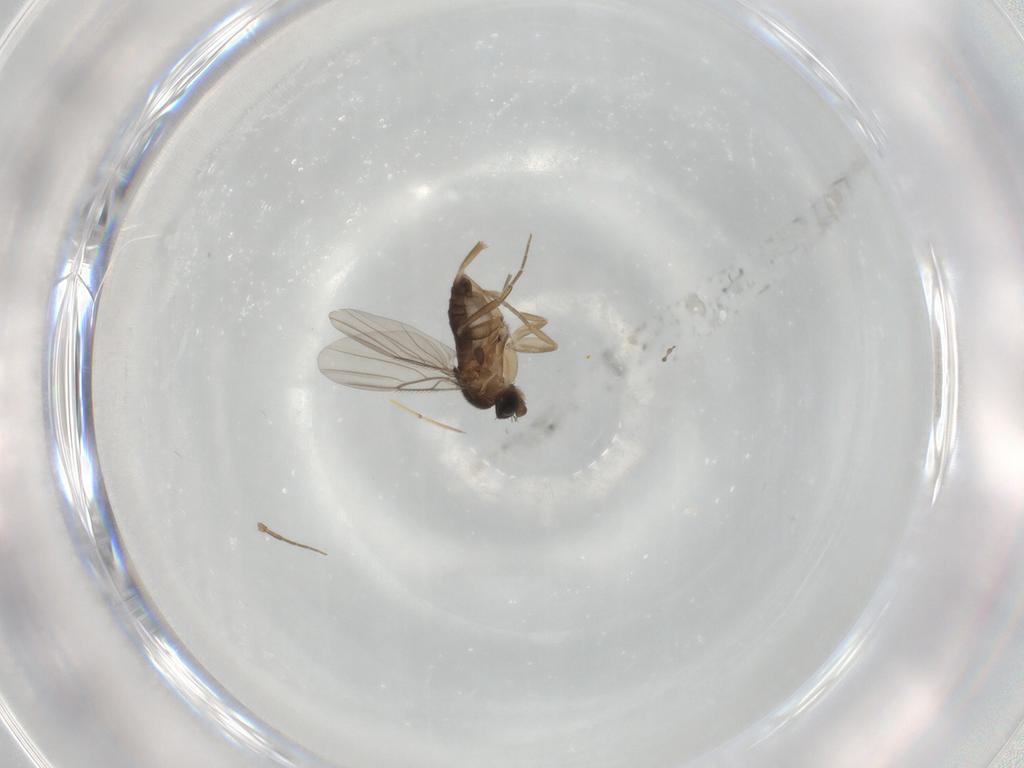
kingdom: Animalia
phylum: Arthropoda
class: Insecta
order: Diptera
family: Phoridae
